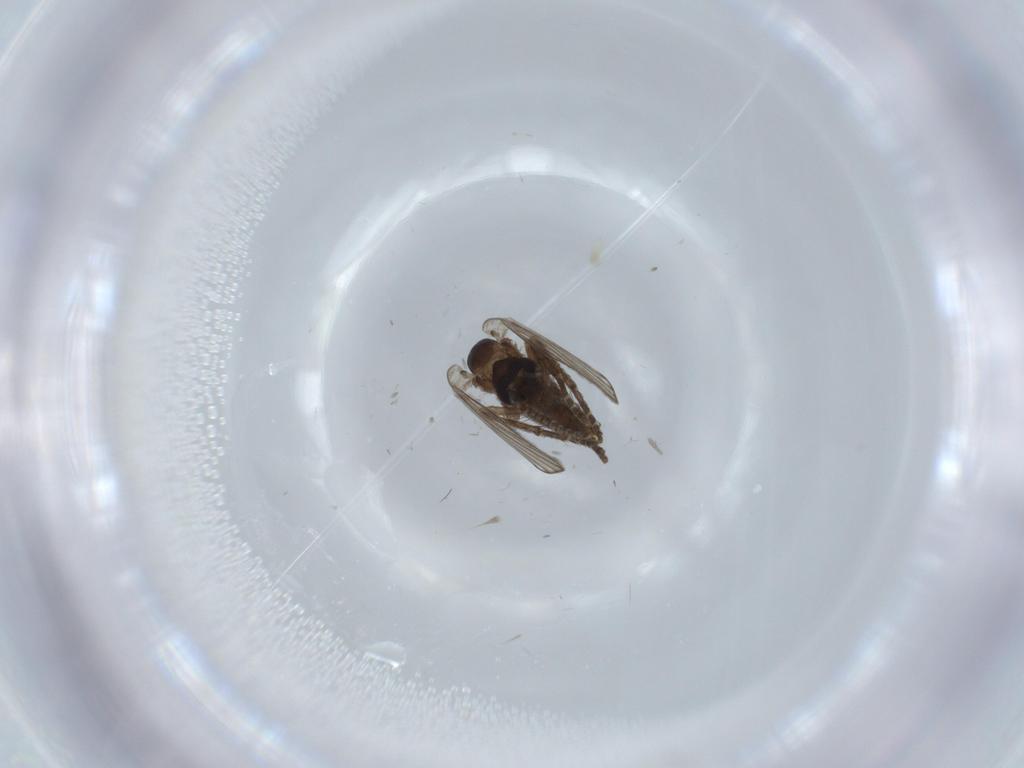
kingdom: Animalia
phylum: Arthropoda
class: Insecta
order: Diptera
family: Psychodidae
